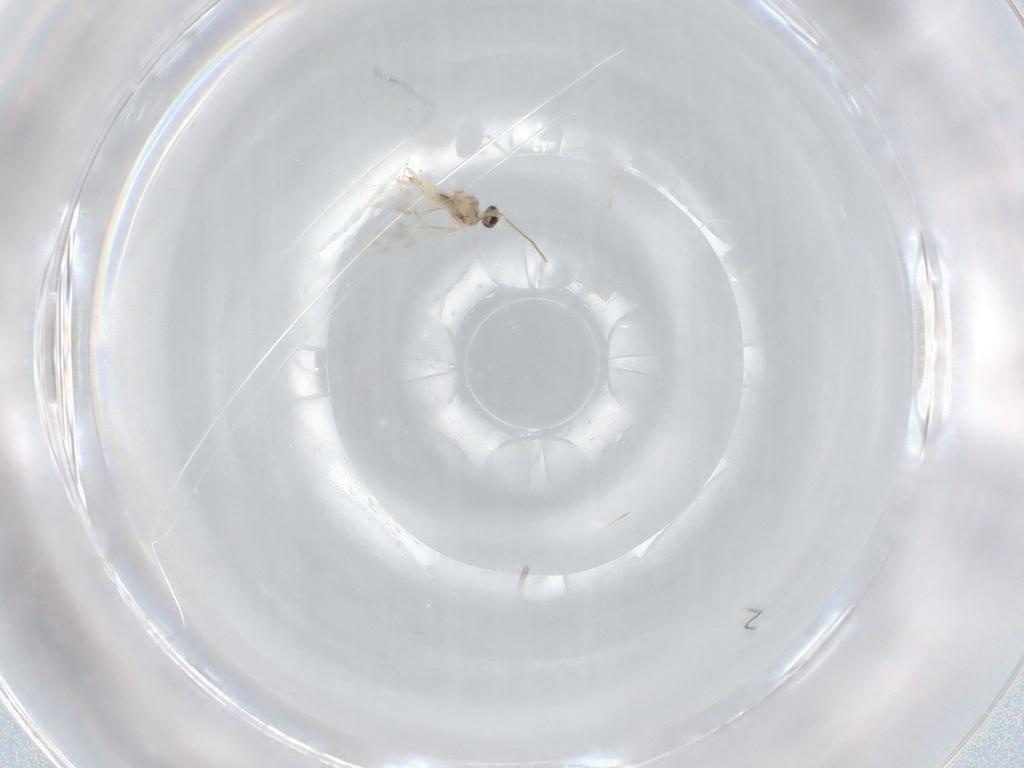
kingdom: Animalia
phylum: Arthropoda
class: Insecta
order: Diptera
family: Cecidomyiidae
